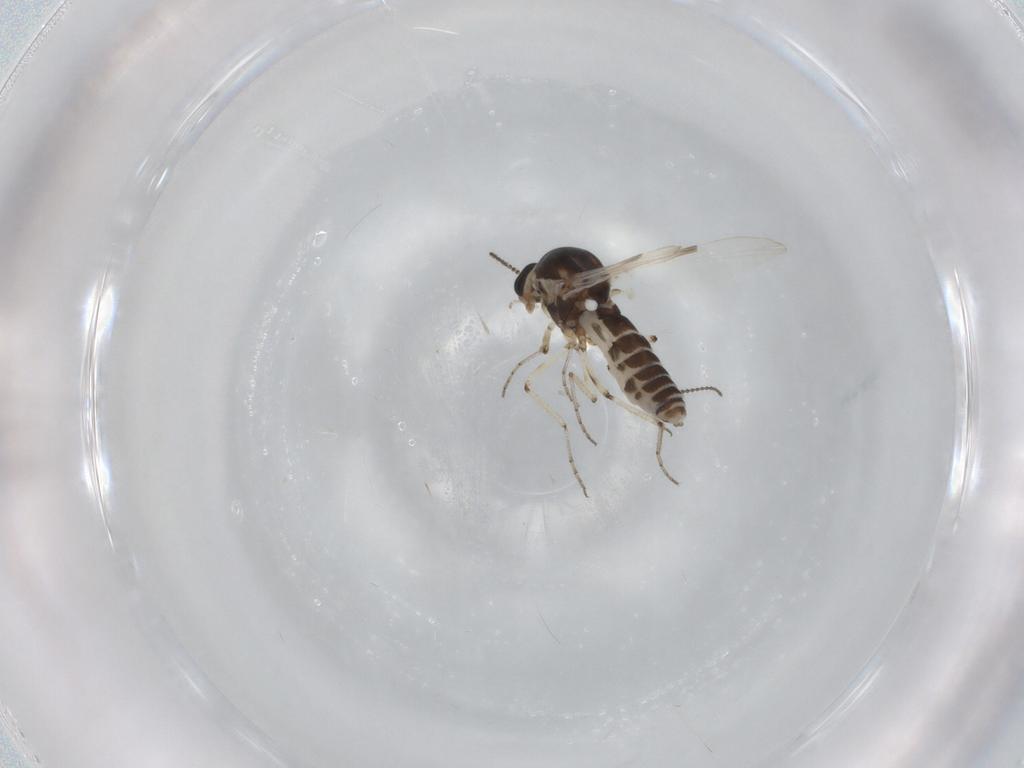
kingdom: Animalia
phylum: Arthropoda
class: Insecta
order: Diptera
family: Ceratopogonidae
